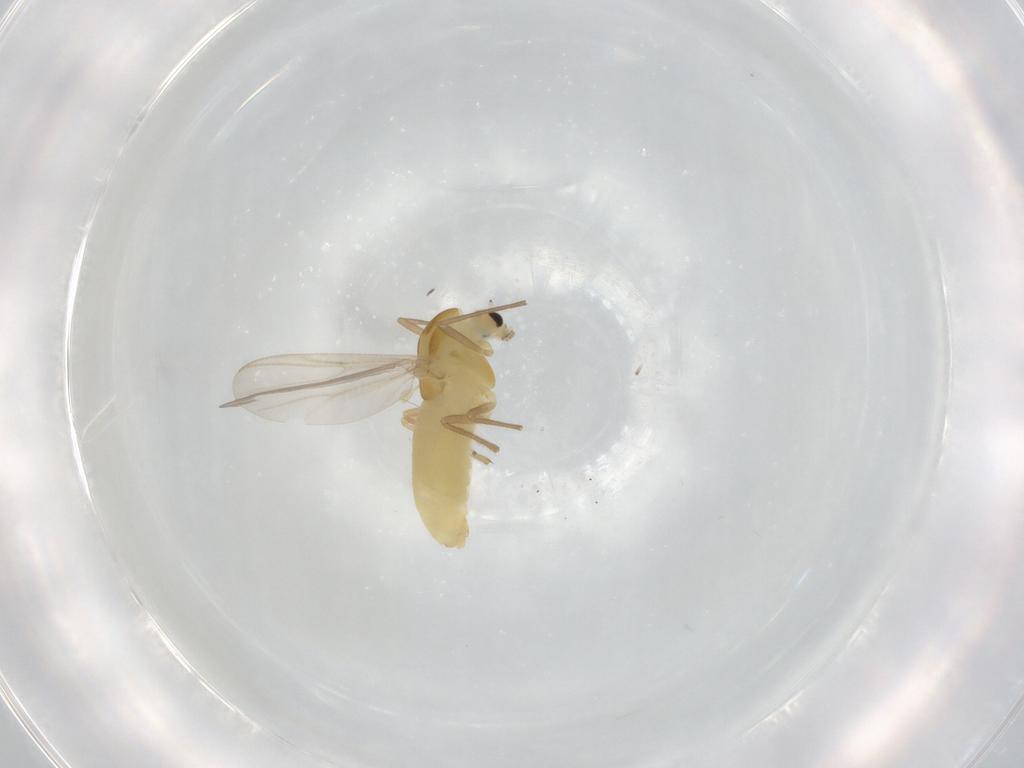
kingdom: Animalia
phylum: Arthropoda
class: Insecta
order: Diptera
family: Chironomidae
